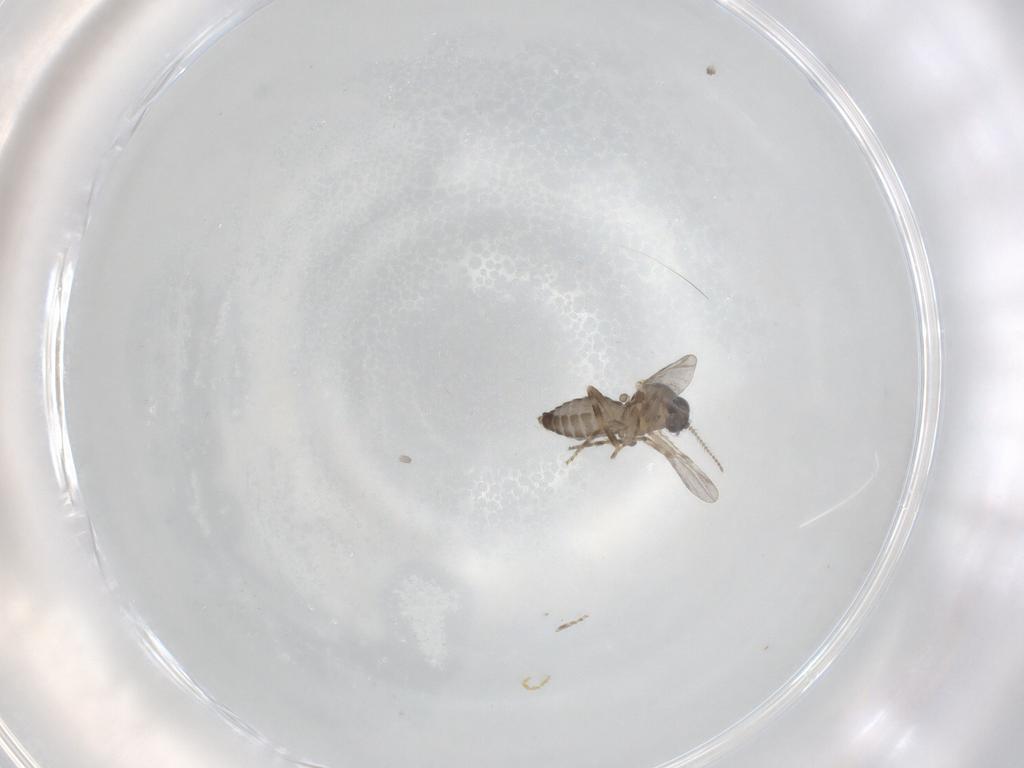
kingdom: Animalia
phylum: Arthropoda
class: Insecta
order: Diptera
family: Ceratopogonidae
